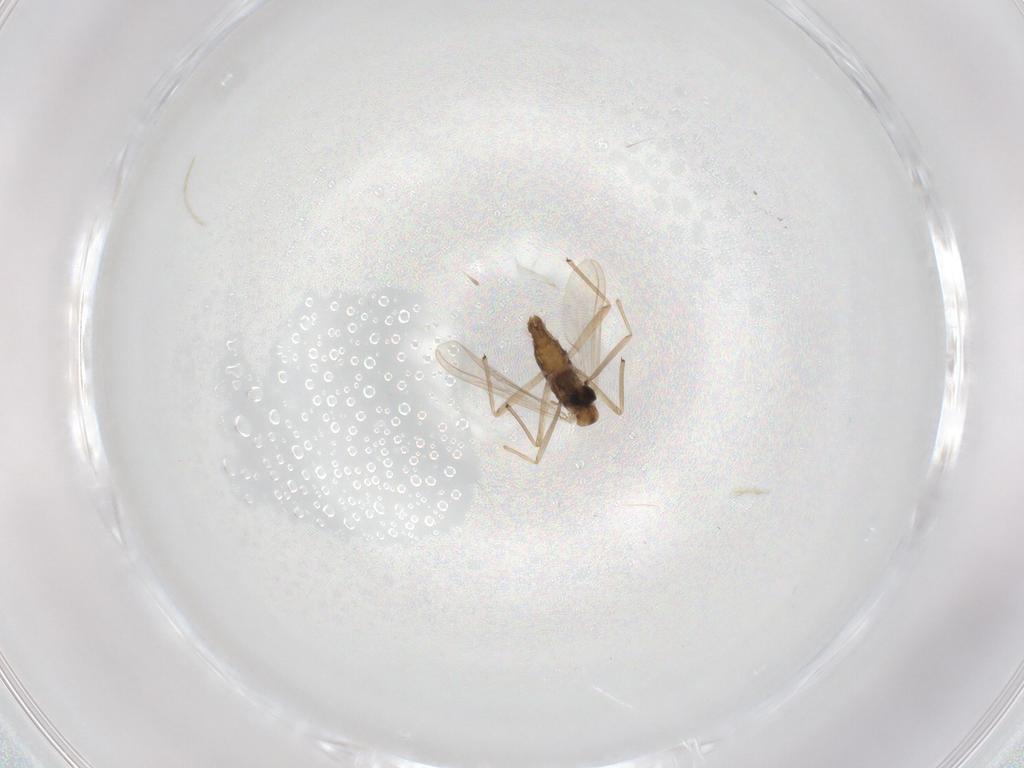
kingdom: Animalia
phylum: Arthropoda
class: Insecta
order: Diptera
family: Chironomidae
